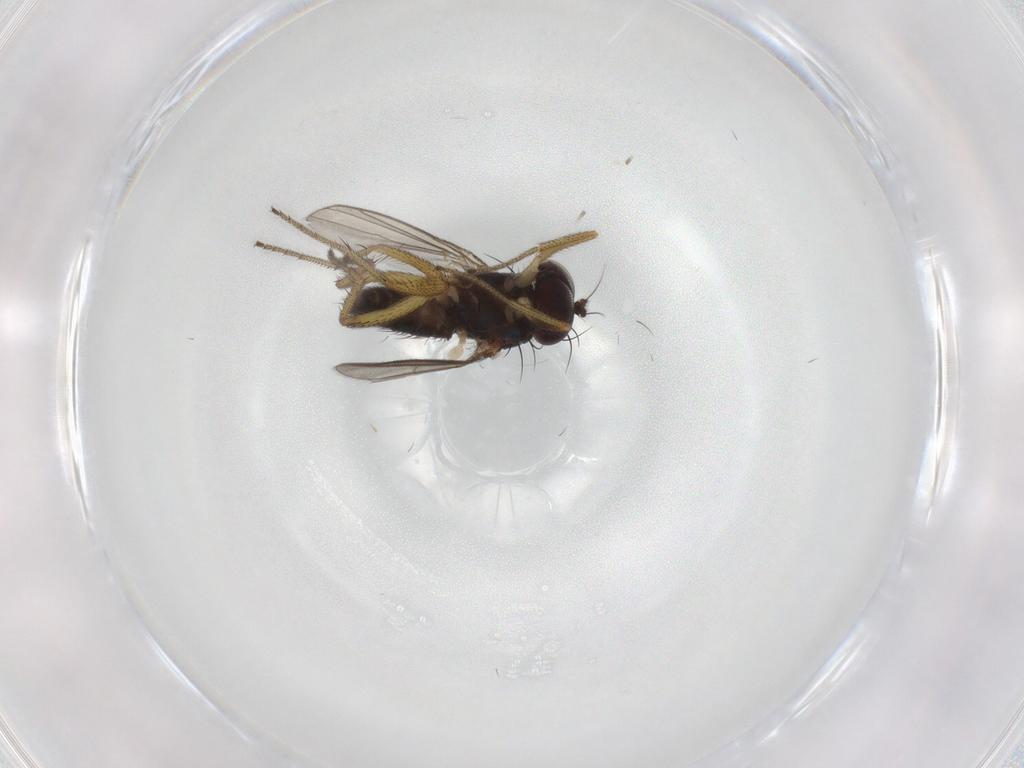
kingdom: Animalia
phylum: Arthropoda
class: Insecta
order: Diptera
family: Dolichopodidae
